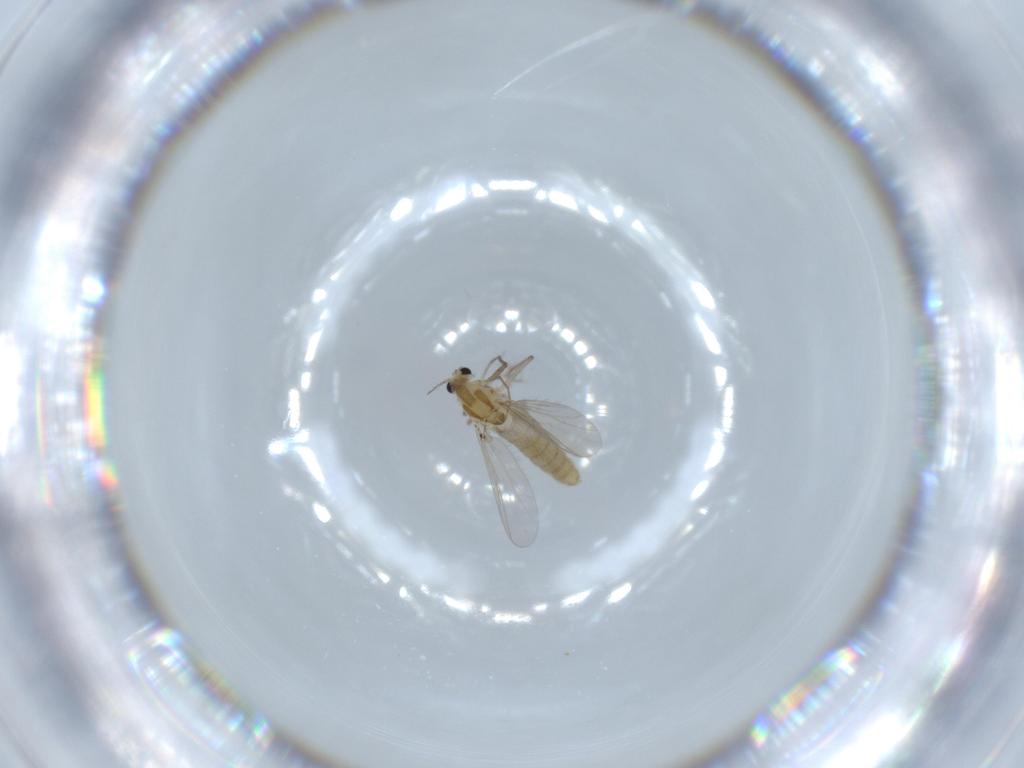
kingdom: Animalia
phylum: Arthropoda
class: Insecta
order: Diptera
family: Chironomidae
